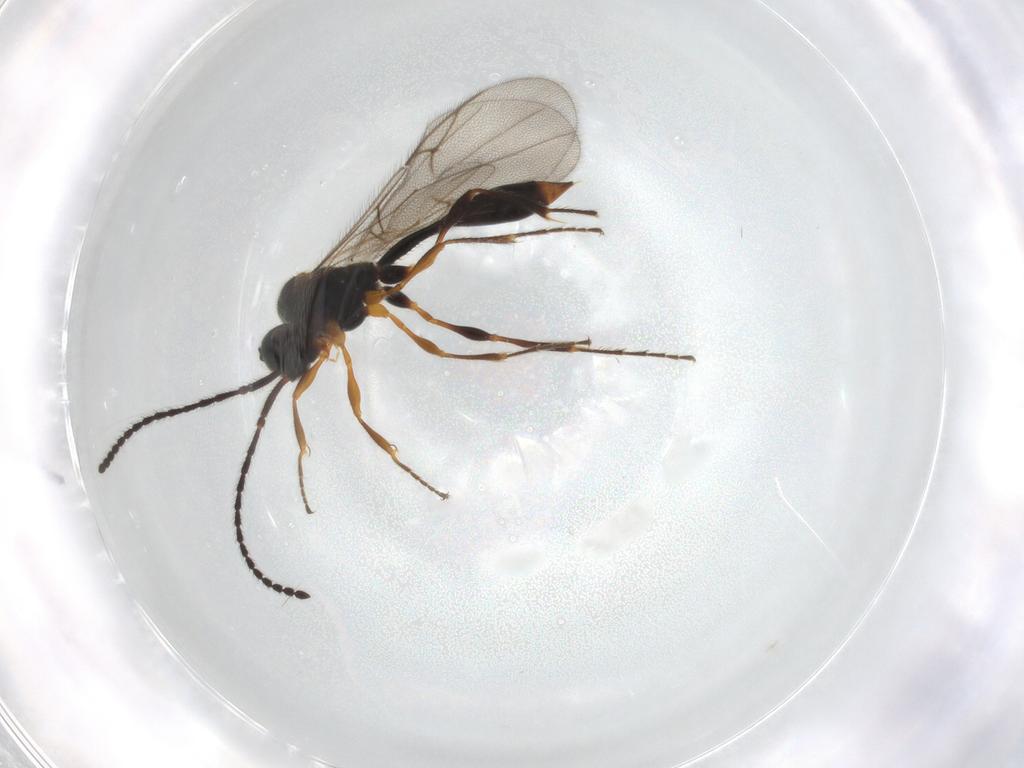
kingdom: Animalia
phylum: Arthropoda
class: Insecta
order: Hymenoptera
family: Diapriidae
